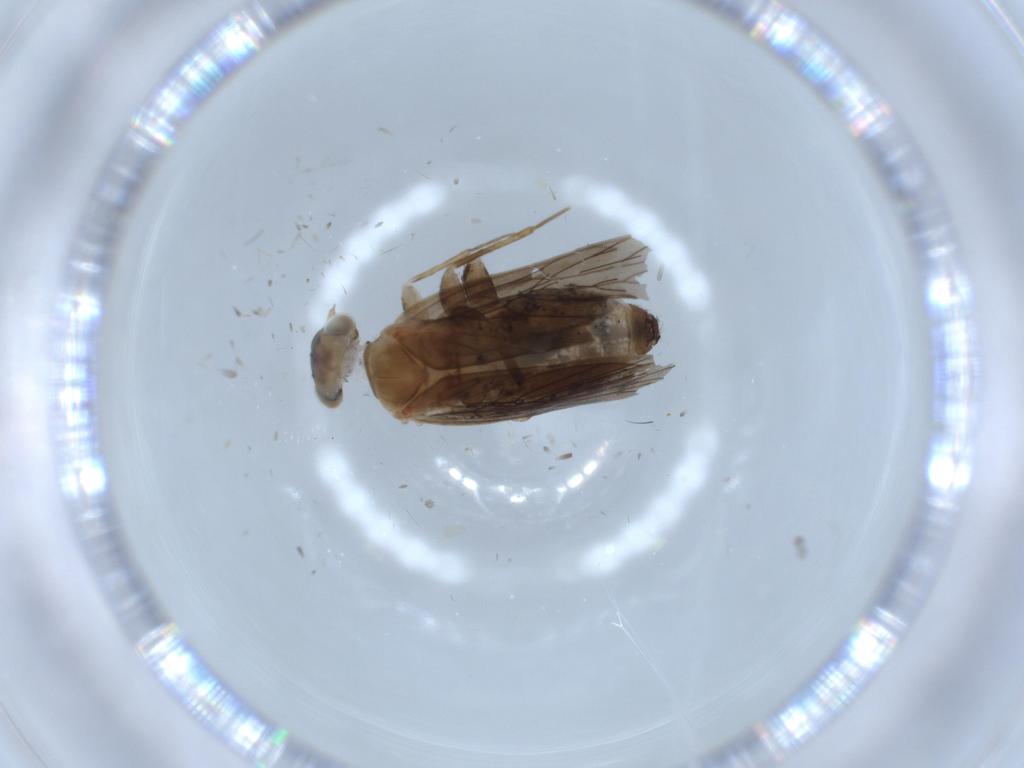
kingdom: Animalia
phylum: Arthropoda
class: Insecta
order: Psocodea
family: Lepidopsocidae
